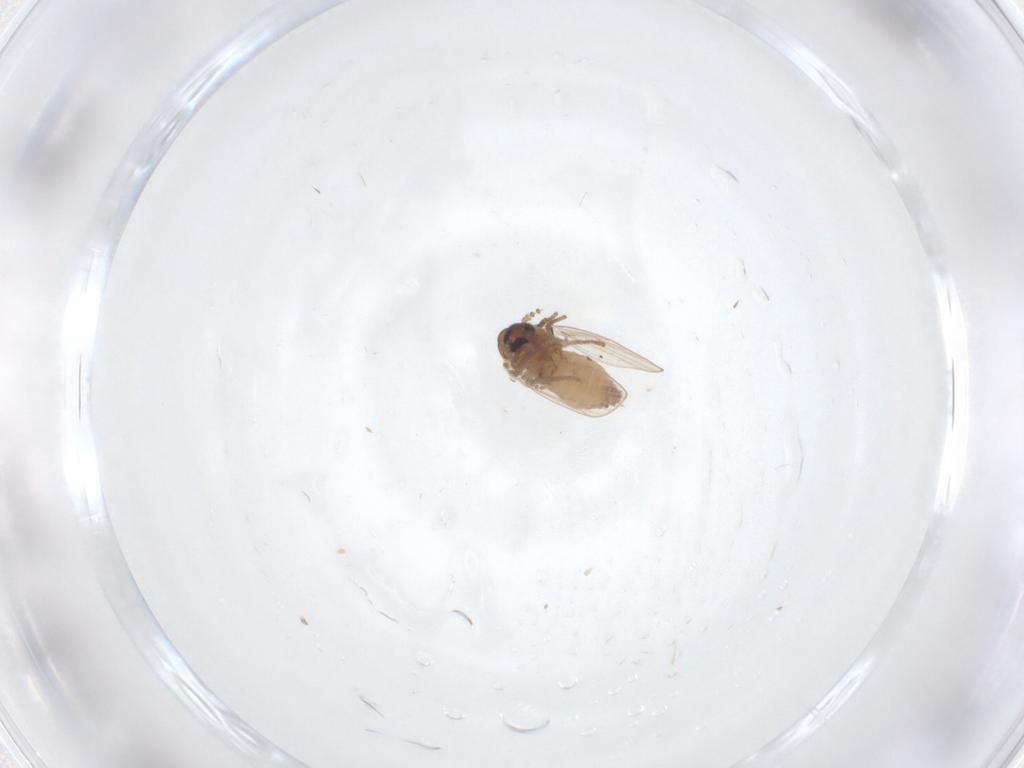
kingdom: Animalia
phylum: Arthropoda
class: Insecta
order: Diptera
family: Psychodidae
